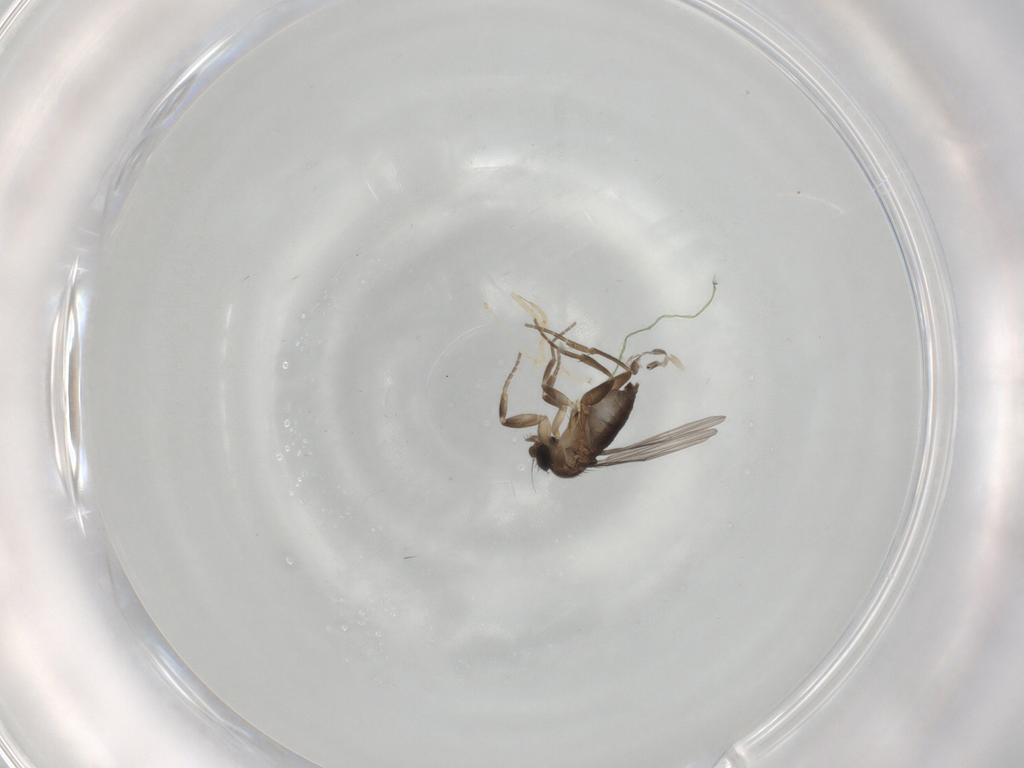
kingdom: Animalia
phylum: Arthropoda
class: Insecta
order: Diptera
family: Phoridae
